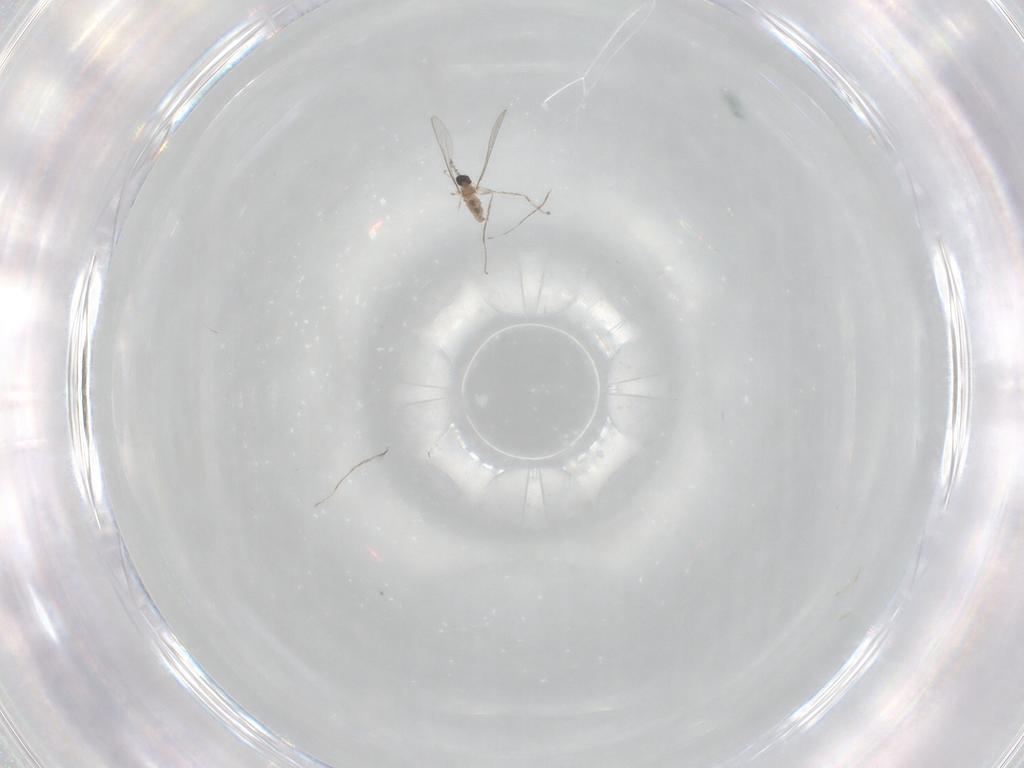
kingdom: Animalia
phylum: Arthropoda
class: Insecta
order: Diptera
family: Cecidomyiidae
